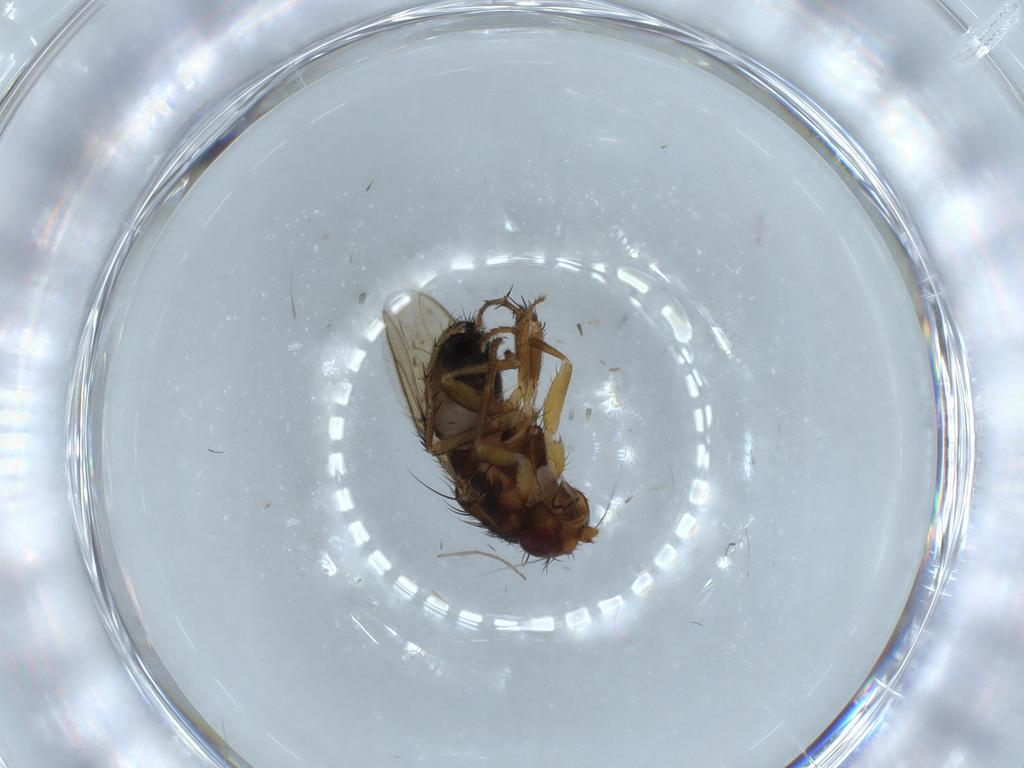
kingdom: Animalia
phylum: Arthropoda
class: Insecta
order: Diptera
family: Sphaeroceridae
